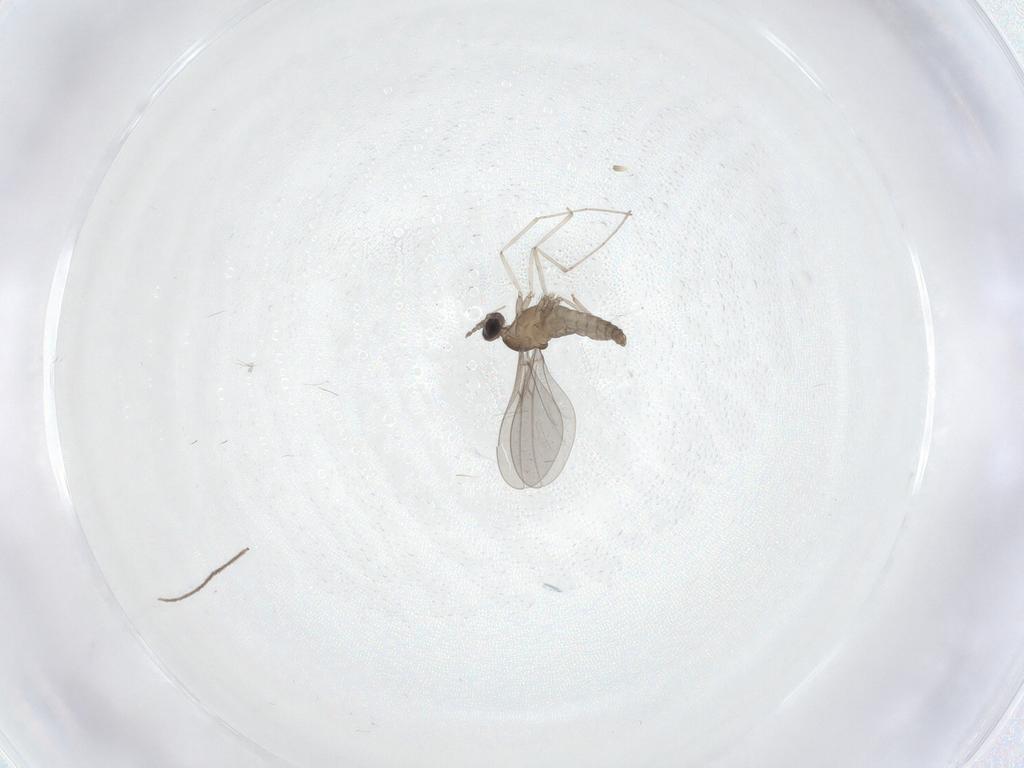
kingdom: Animalia
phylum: Arthropoda
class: Insecta
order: Diptera
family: Cecidomyiidae
